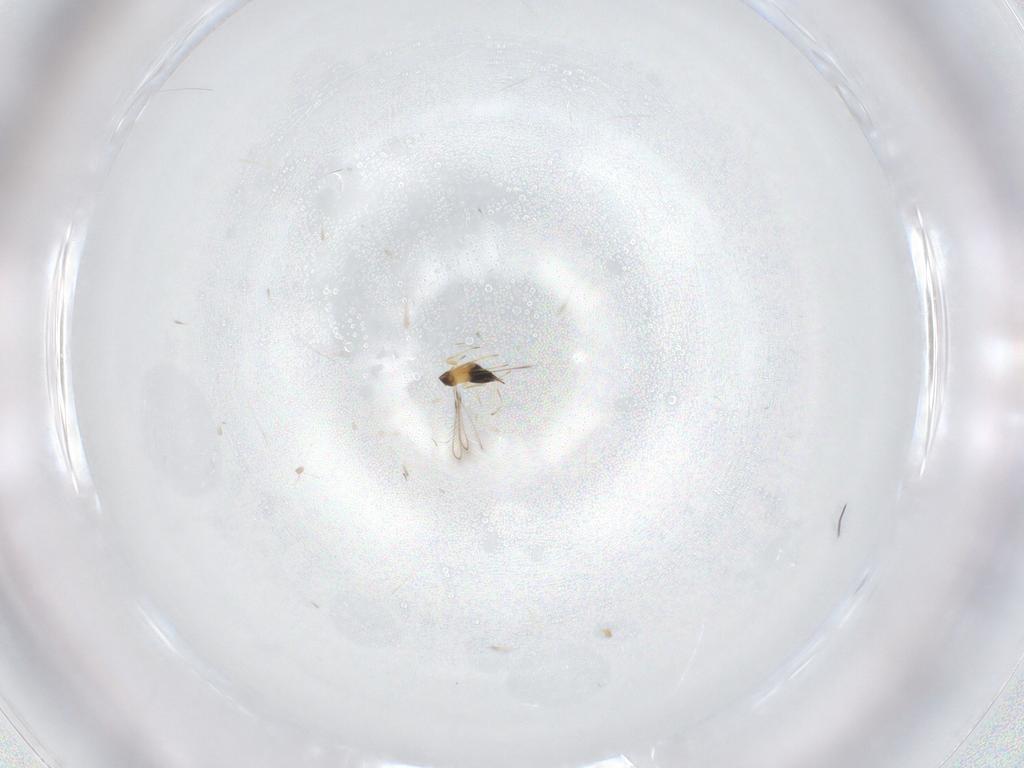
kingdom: Animalia
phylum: Arthropoda
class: Insecta
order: Hymenoptera
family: Mymaridae
